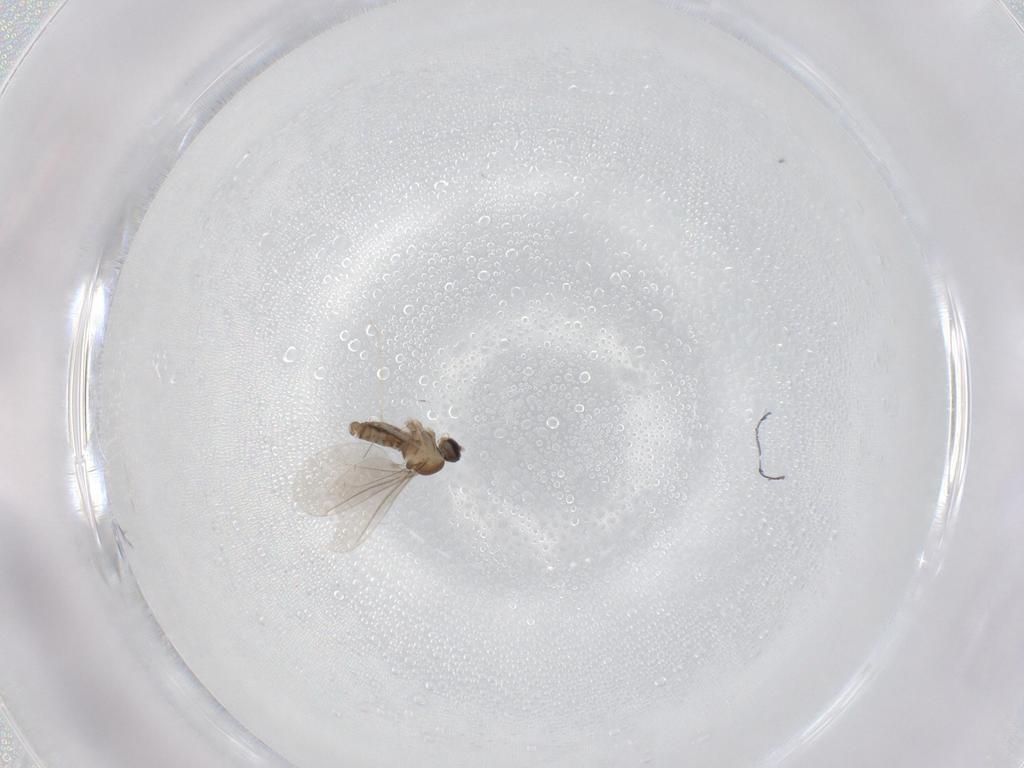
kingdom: Animalia
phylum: Arthropoda
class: Insecta
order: Diptera
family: Cecidomyiidae
